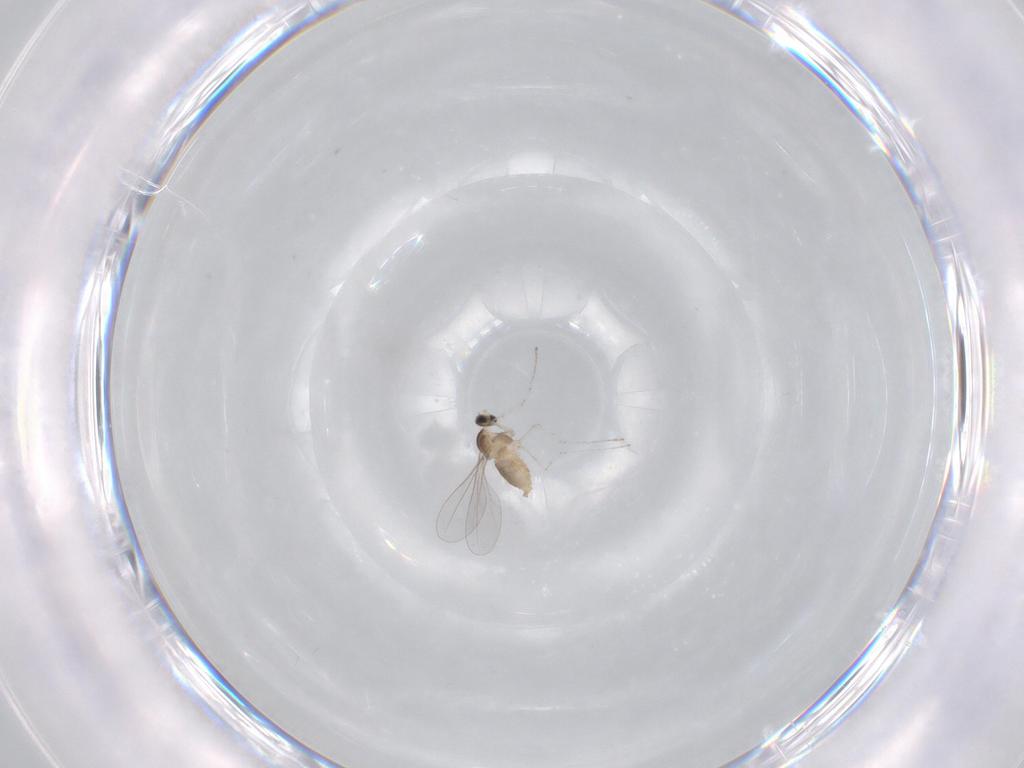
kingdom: Animalia
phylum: Arthropoda
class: Insecta
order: Diptera
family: Cecidomyiidae
